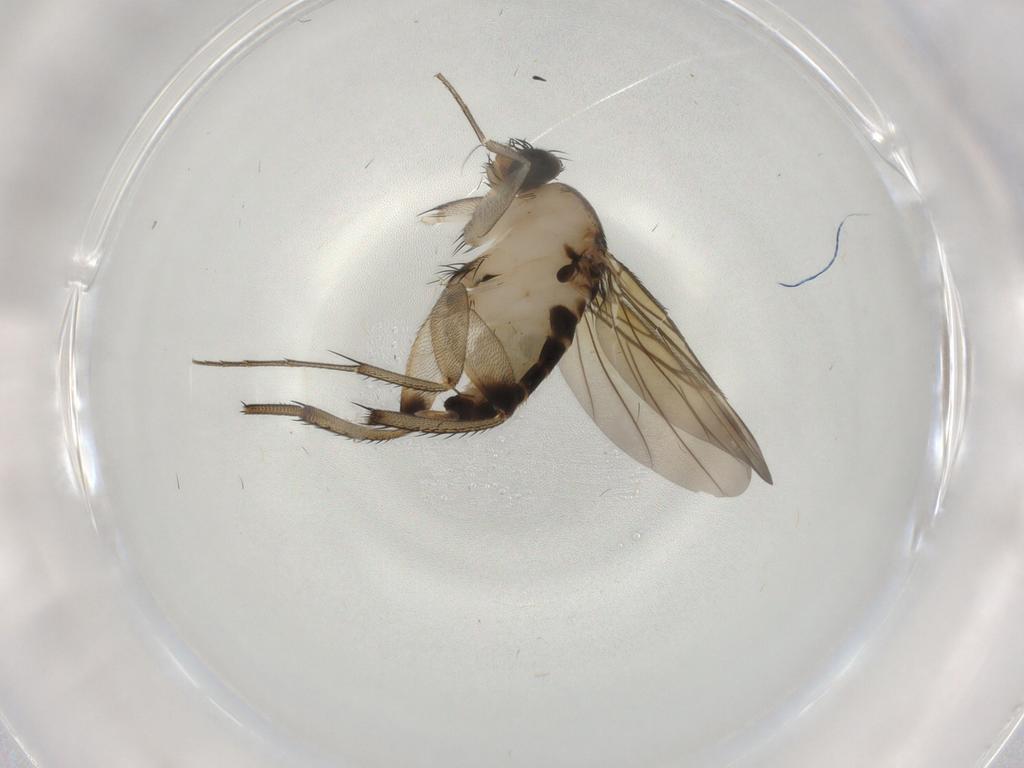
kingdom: Animalia
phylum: Arthropoda
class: Insecta
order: Diptera
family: Phoridae
